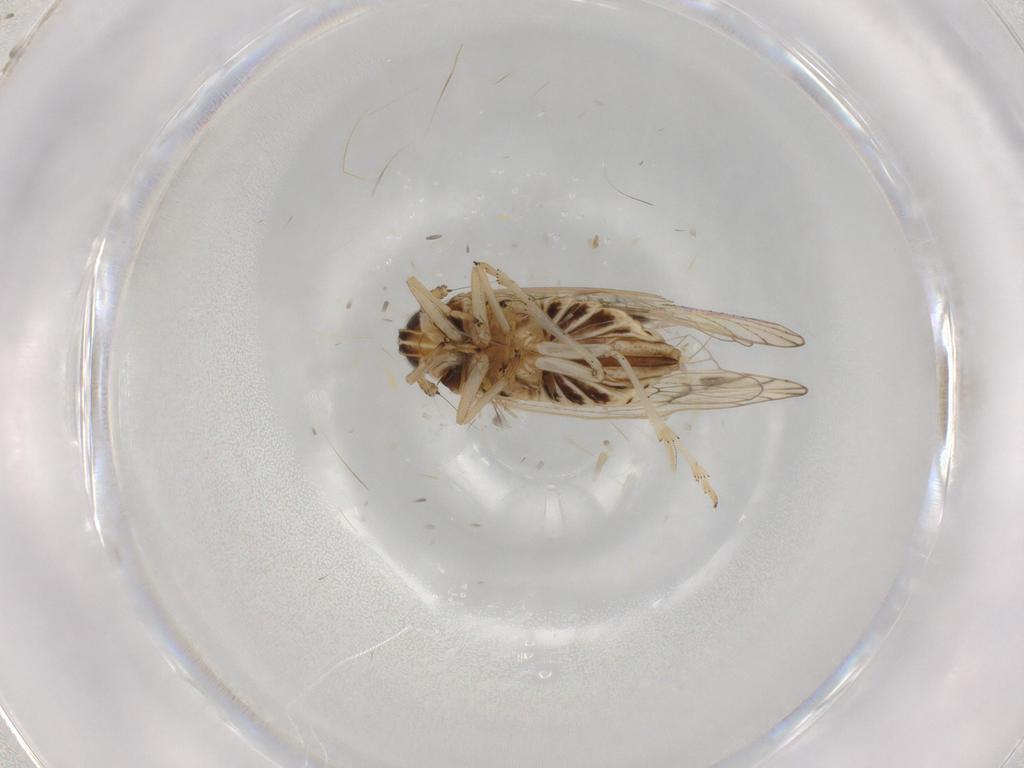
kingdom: Animalia
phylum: Arthropoda
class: Insecta
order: Hemiptera
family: Delphacidae
